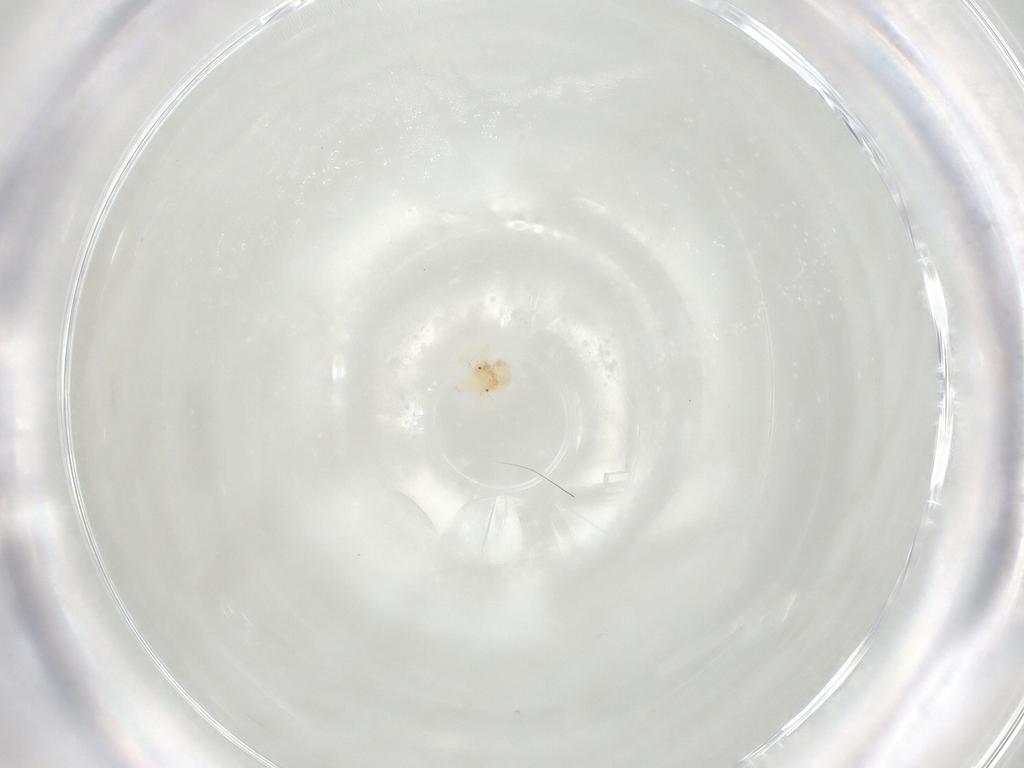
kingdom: Animalia
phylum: Arthropoda
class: Arachnida
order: Trombidiformes
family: Anystidae
